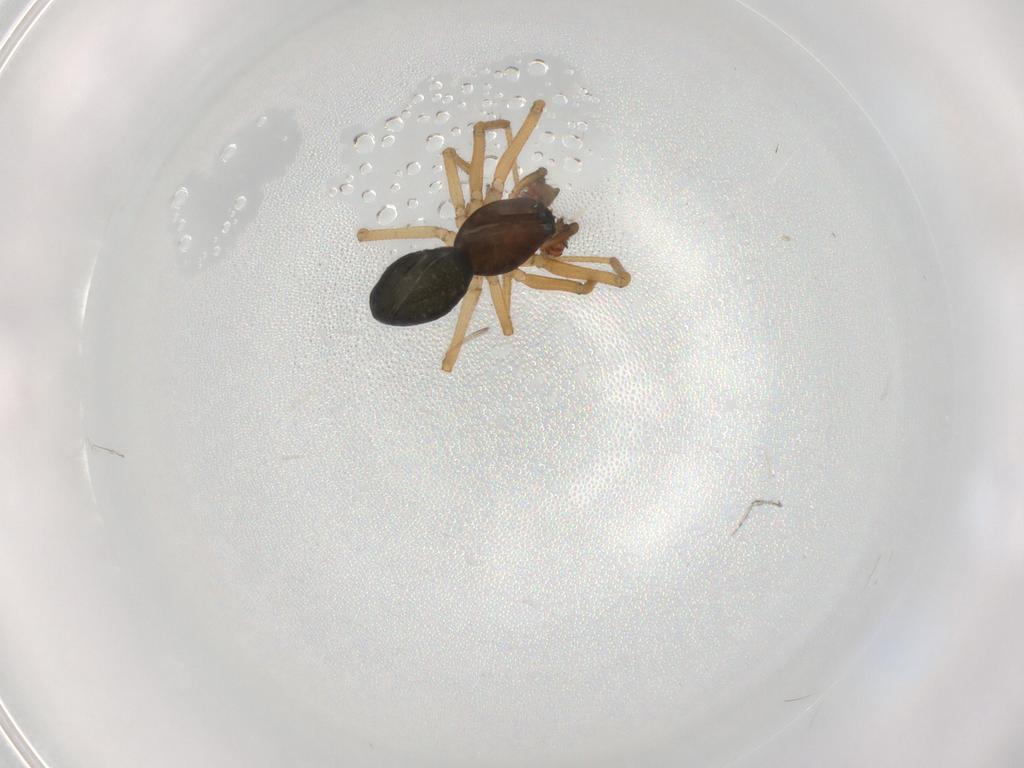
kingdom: Animalia
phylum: Arthropoda
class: Arachnida
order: Araneae
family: Linyphiidae
